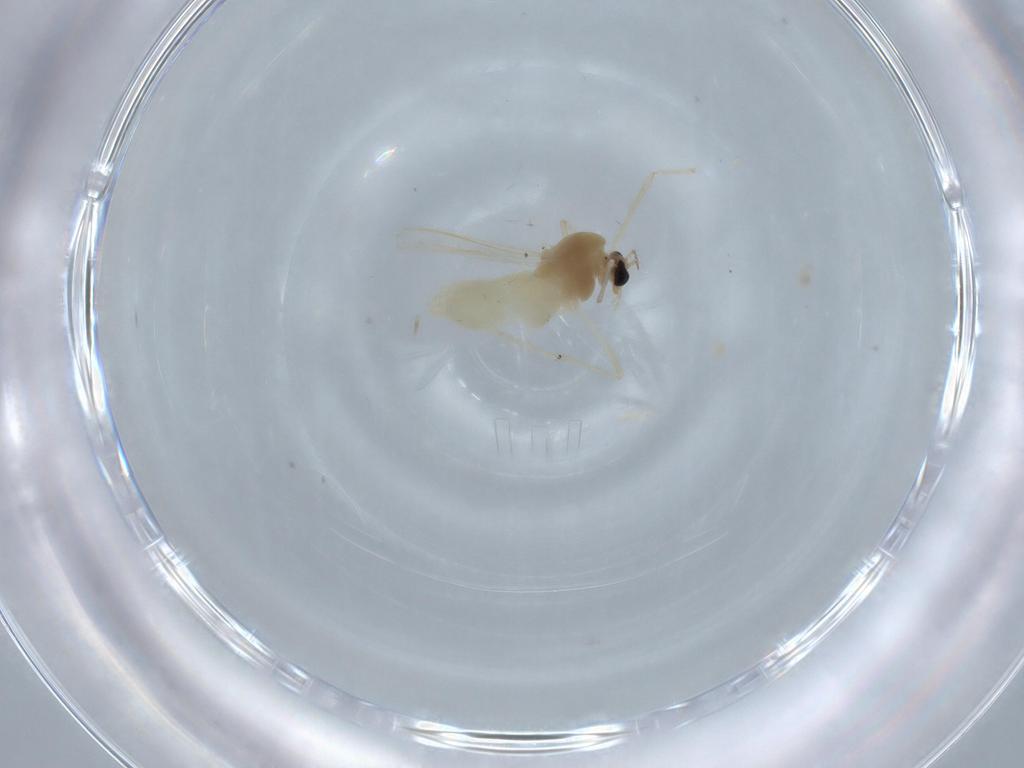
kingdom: Animalia
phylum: Arthropoda
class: Insecta
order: Diptera
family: Chironomidae
